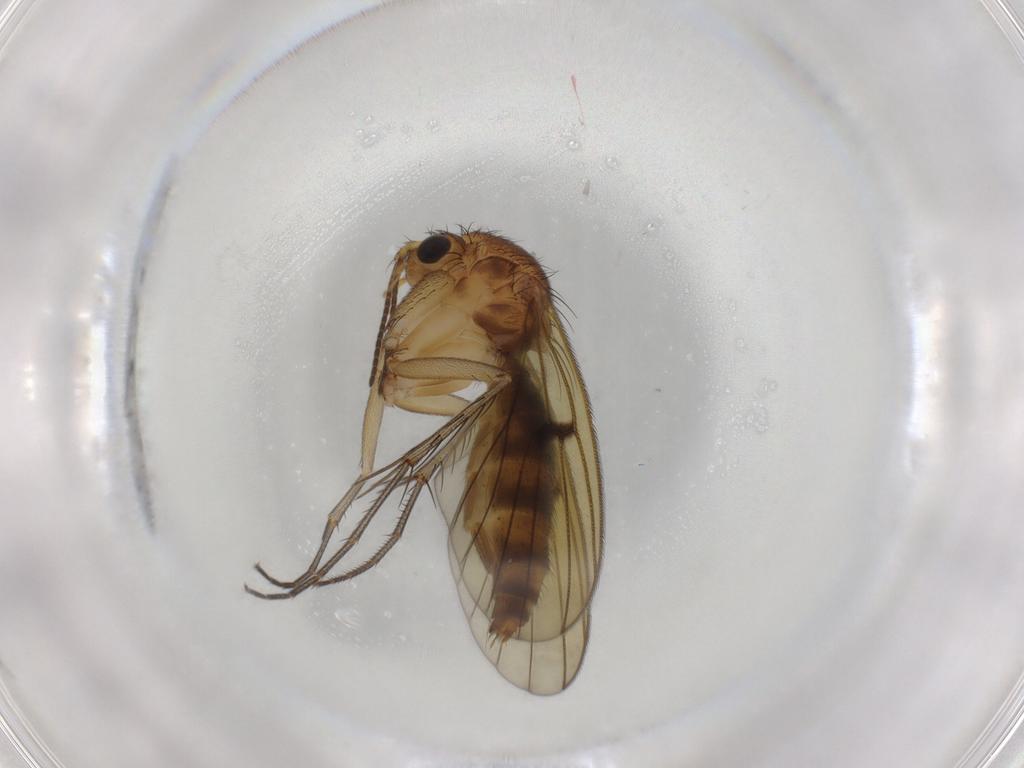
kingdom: Animalia
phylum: Arthropoda
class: Insecta
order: Diptera
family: Mycetophilidae
